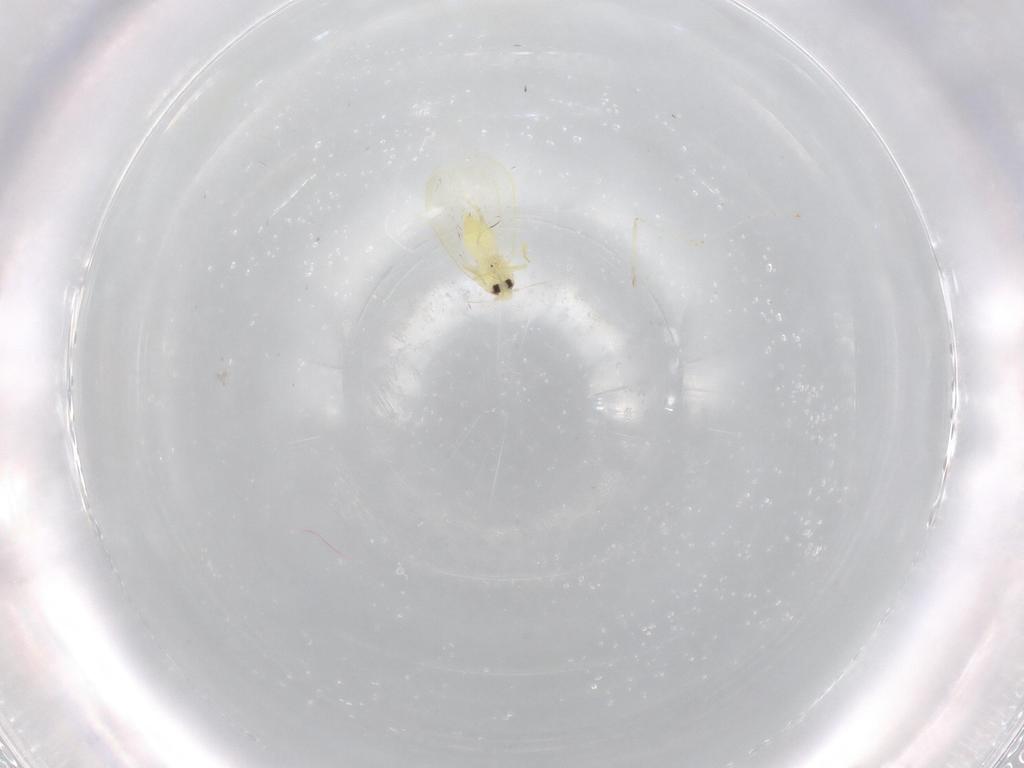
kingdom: Animalia
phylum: Arthropoda
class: Insecta
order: Hemiptera
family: Aleyrodidae
